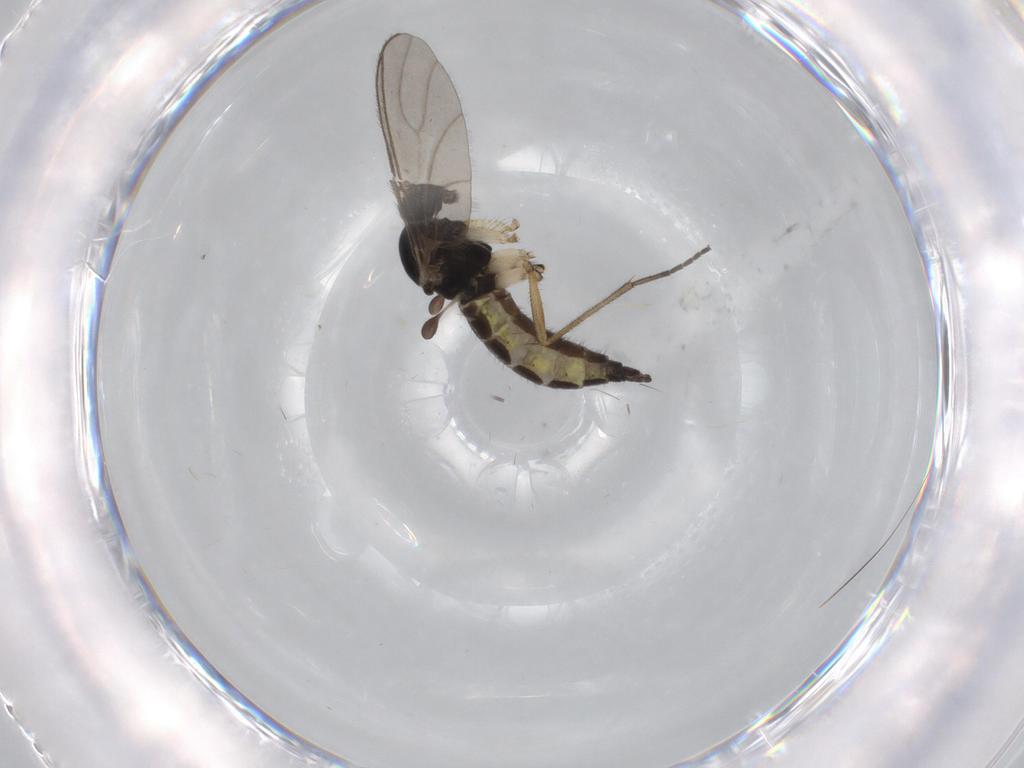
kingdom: Animalia
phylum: Arthropoda
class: Insecta
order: Diptera
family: Sciaridae
